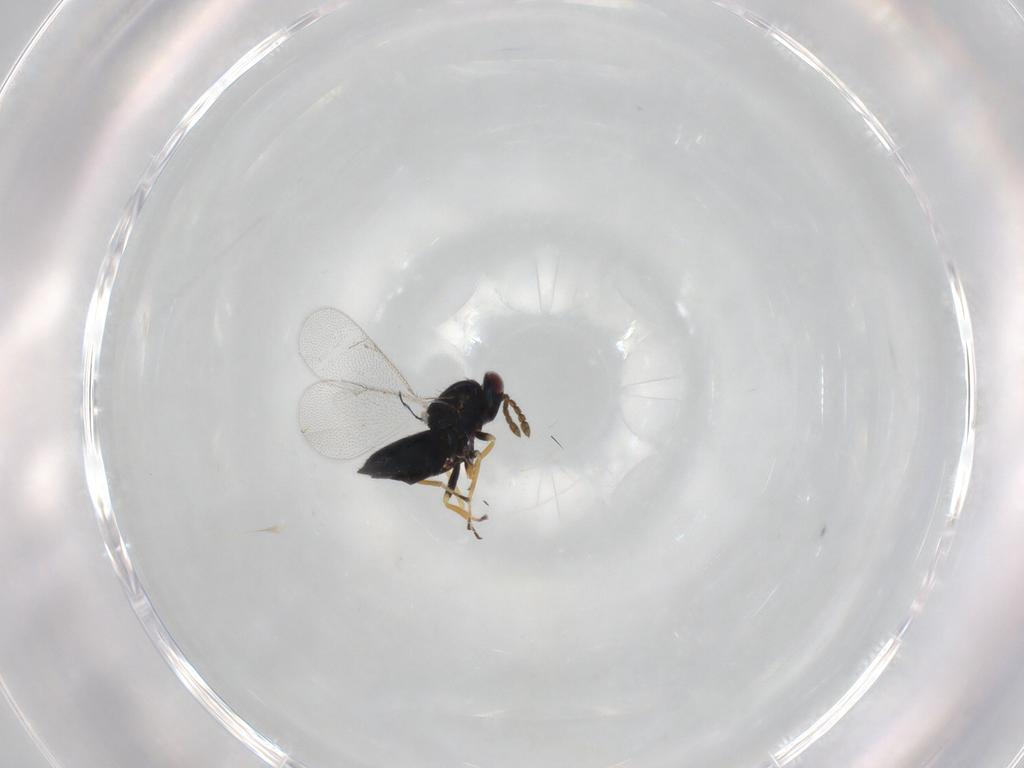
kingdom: Animalia
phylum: Arthropoda
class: Insecta
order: Hymenoptera
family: Eulophidae
